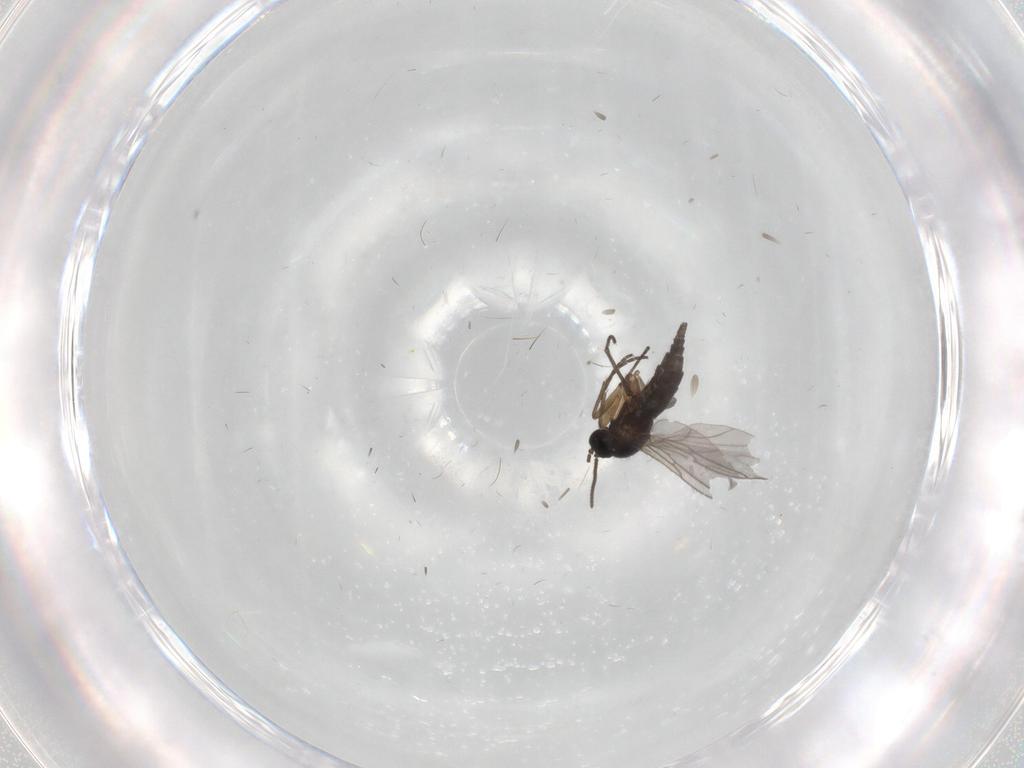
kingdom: Animalia
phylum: Arthropoda
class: Insecta
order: Diptera
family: Sciaridae
